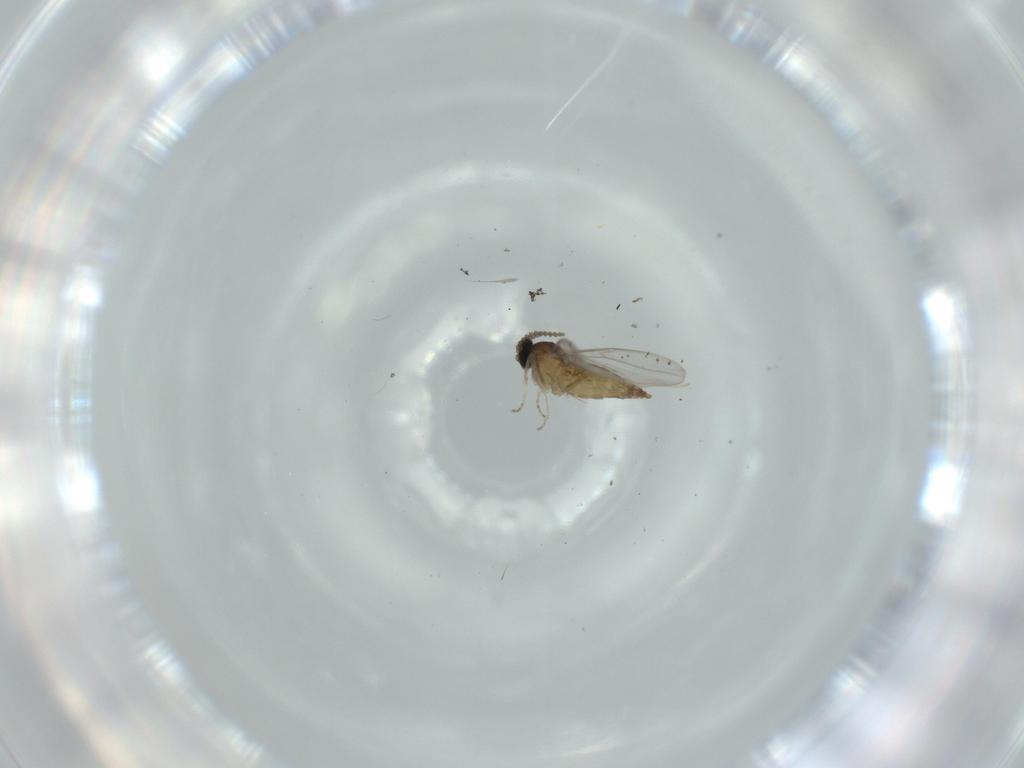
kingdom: Animalia
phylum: Arthropoda
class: Insecta
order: Diptera
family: Cecidomyiidae
